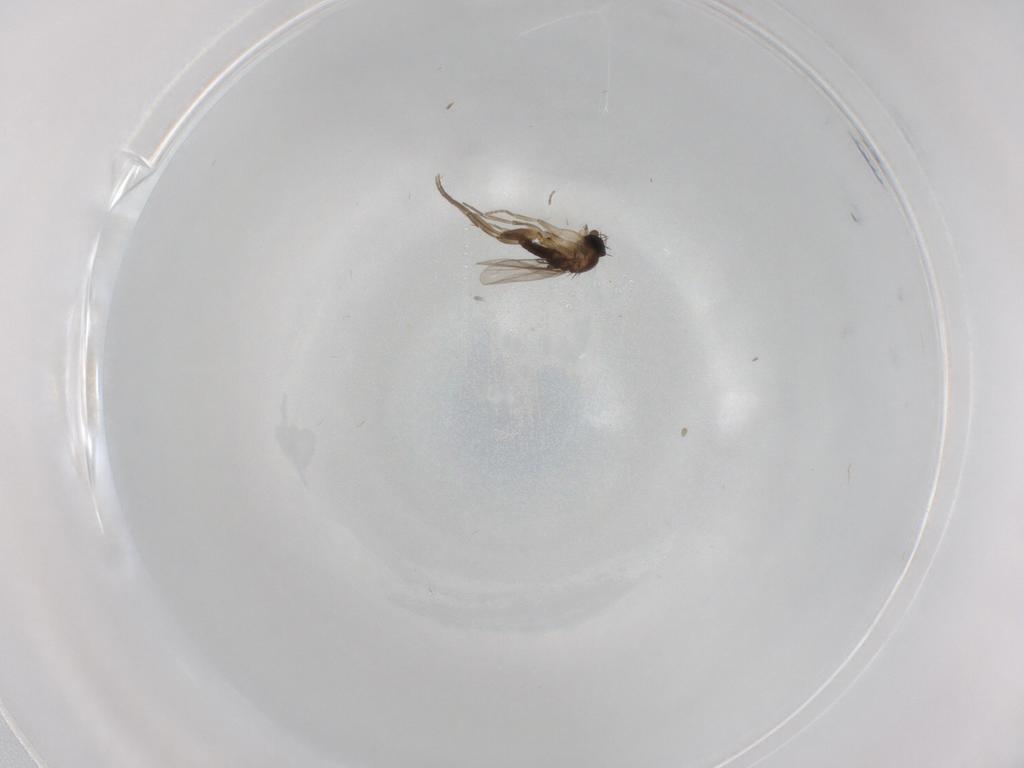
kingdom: Animalia
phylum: Arthropoda
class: Insecta
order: Diptera
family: Phoridae
